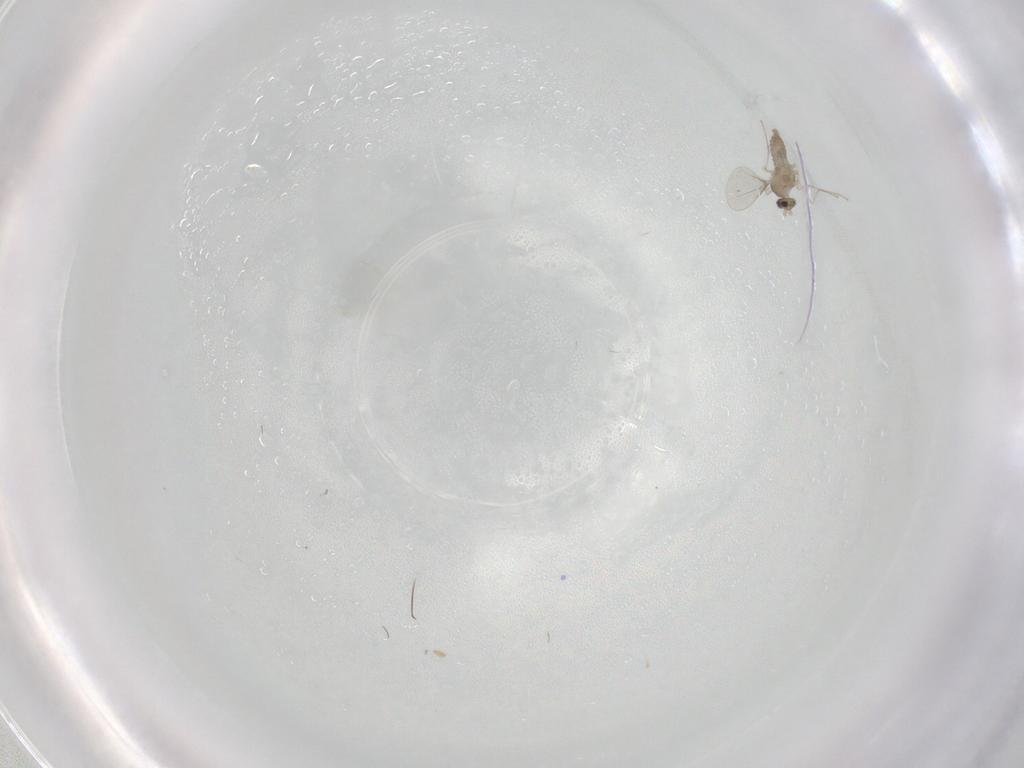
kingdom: Animalia
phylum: Arthropoda
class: Insecta
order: Diptera
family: Cecidomyiidae
